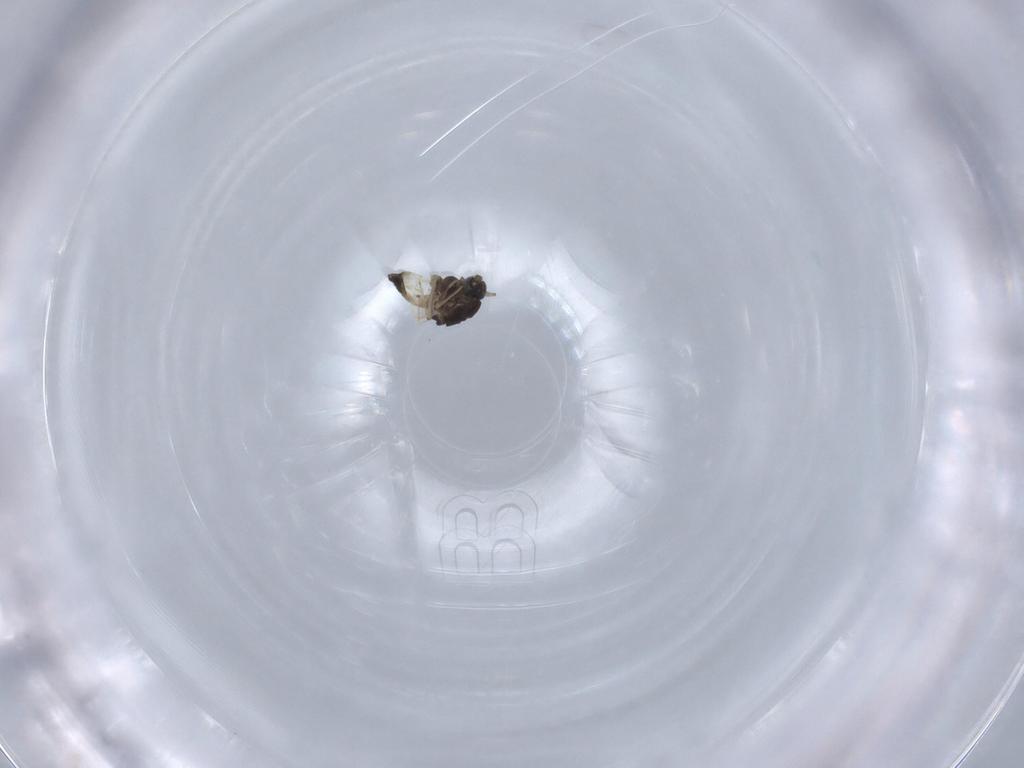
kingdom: Animalia
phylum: Arthropoda
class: Insecta
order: Diptera
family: Chironomidae
